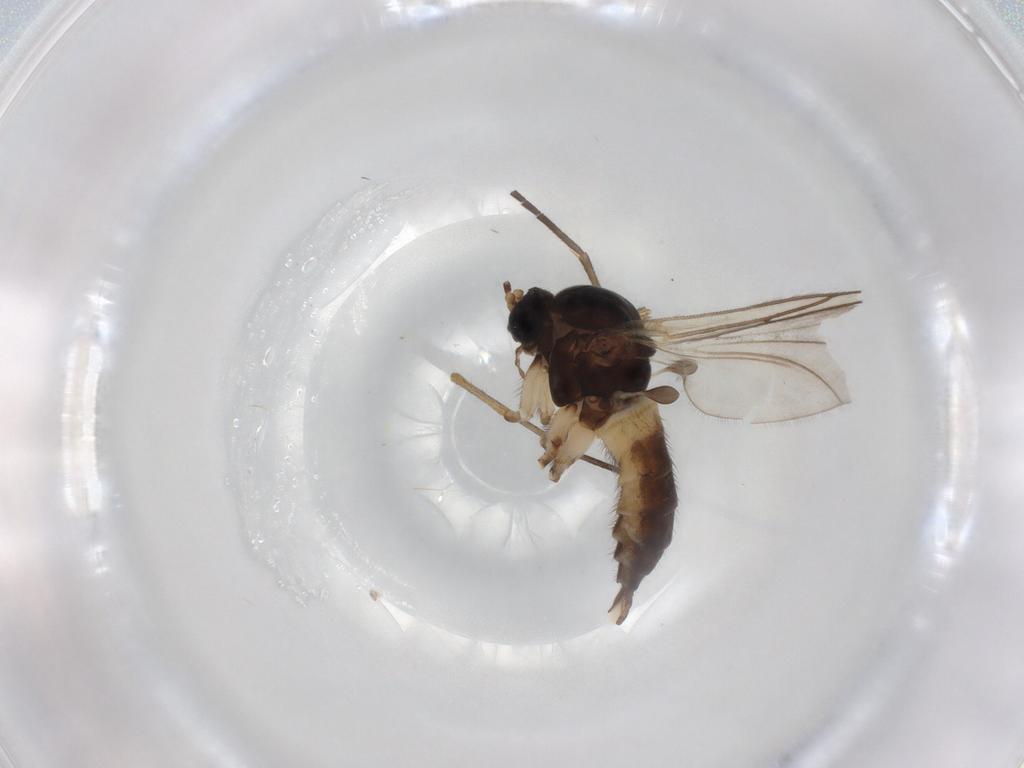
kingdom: Animalia
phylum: Arthropoda
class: Insecta
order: Diptera
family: Sciaridae
